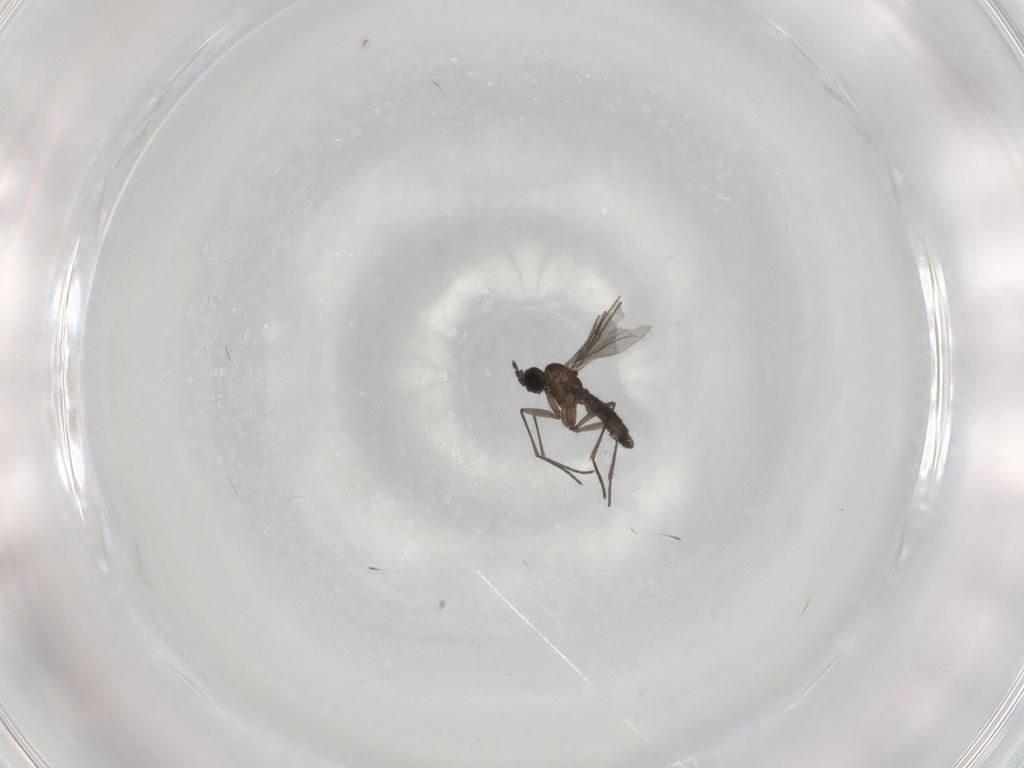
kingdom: Animalia
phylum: Arthropoda
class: Insecta
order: Diptera
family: Cecidomyiidae
